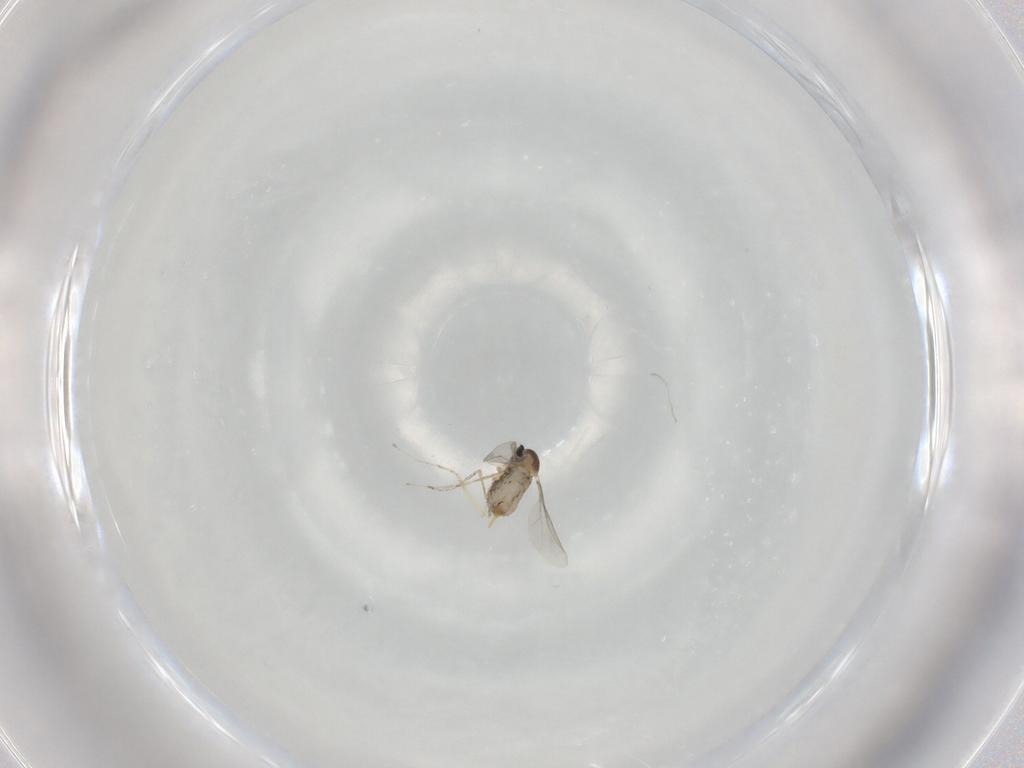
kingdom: Animalia
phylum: Arthropoda
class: Insecta
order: Diptera
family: Cecidomyiidae
